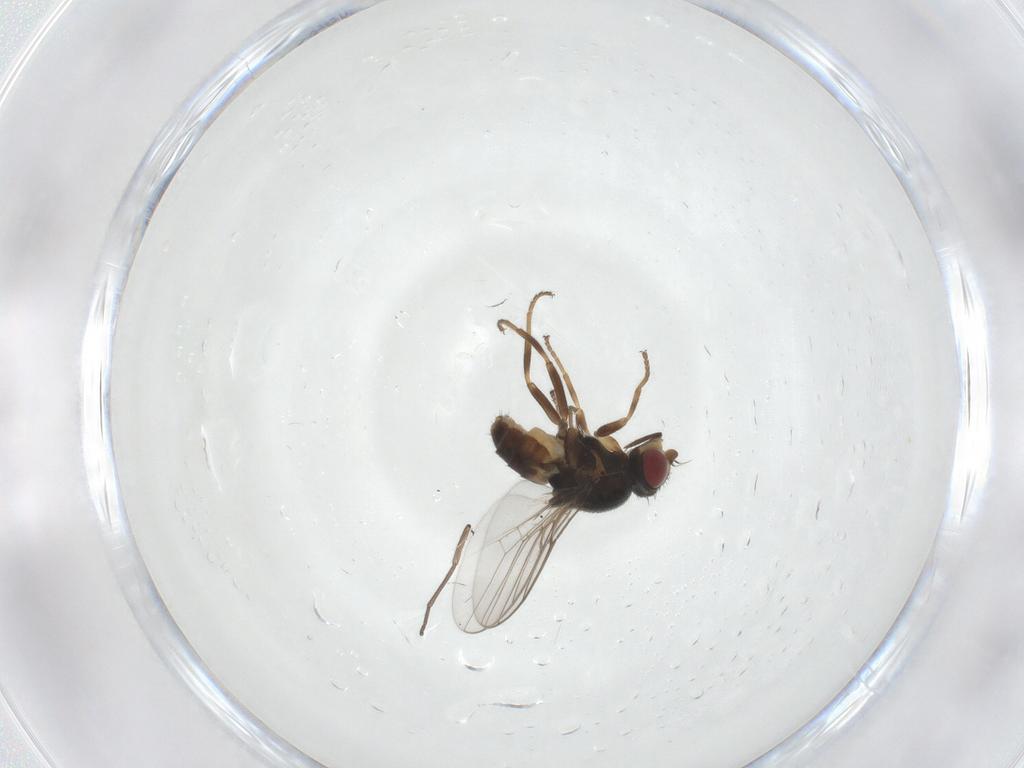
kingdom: Animalia
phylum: Arthropoda
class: Insecta
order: Diptera
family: Chloropidae
